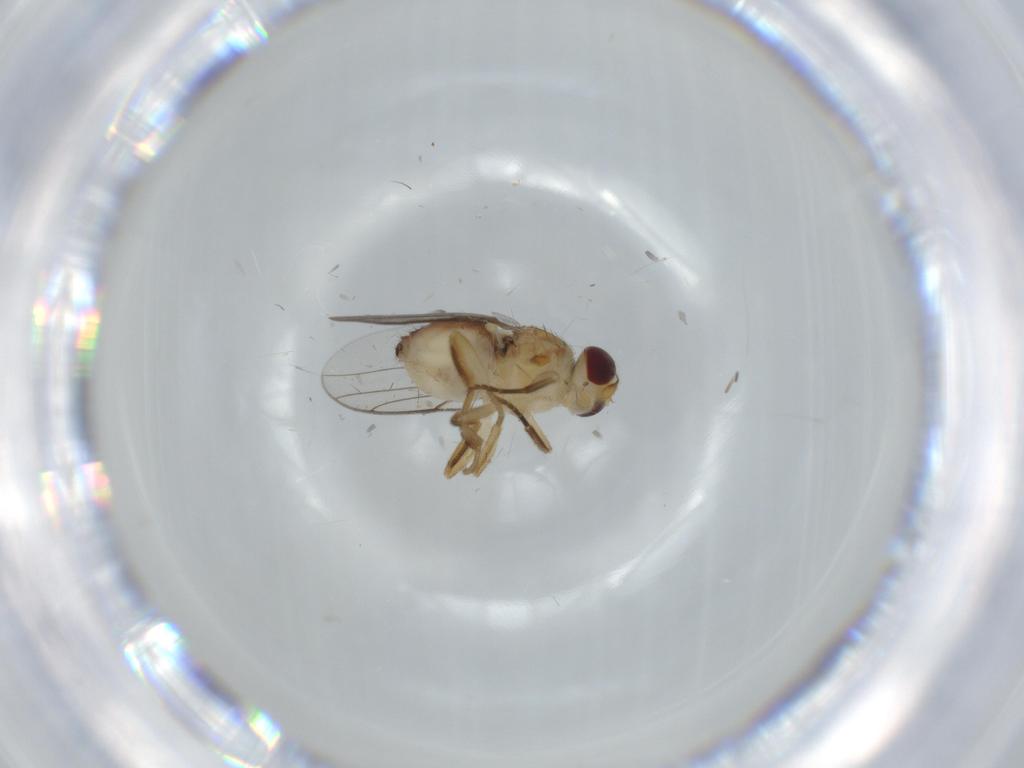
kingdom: Animalia
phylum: Arthropoda
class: Insecta
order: Diptera
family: Chloropidae
